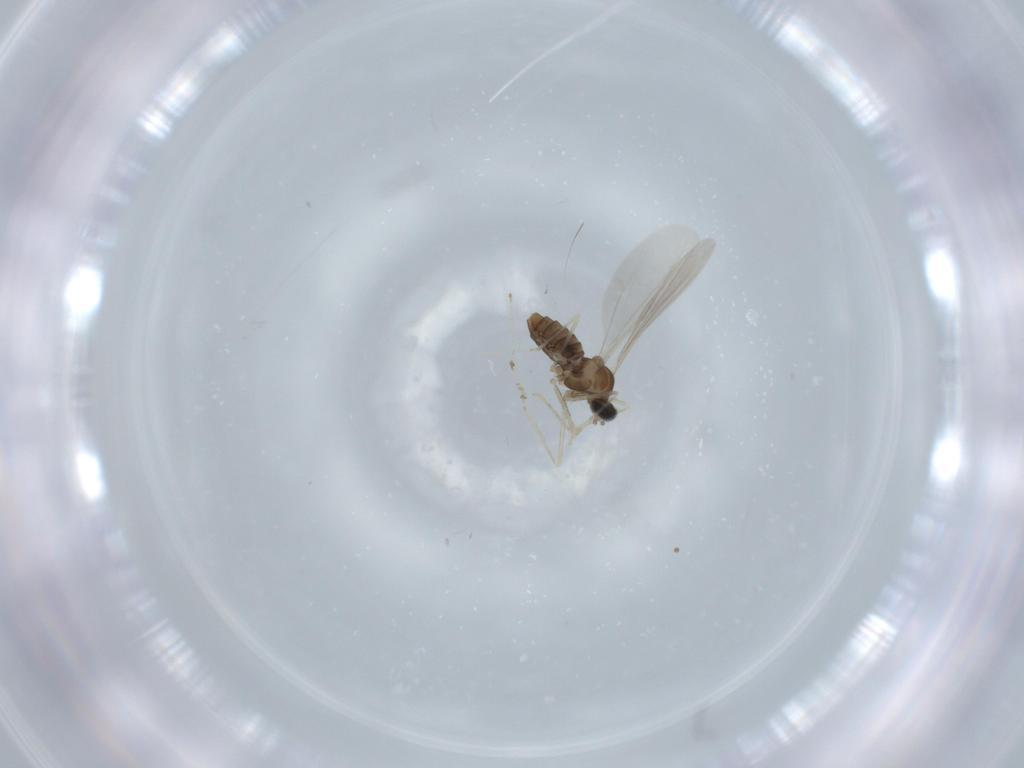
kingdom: Animalia
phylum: Arthropoda
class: Insecta
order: Diptera
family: Cecidomyiidae
